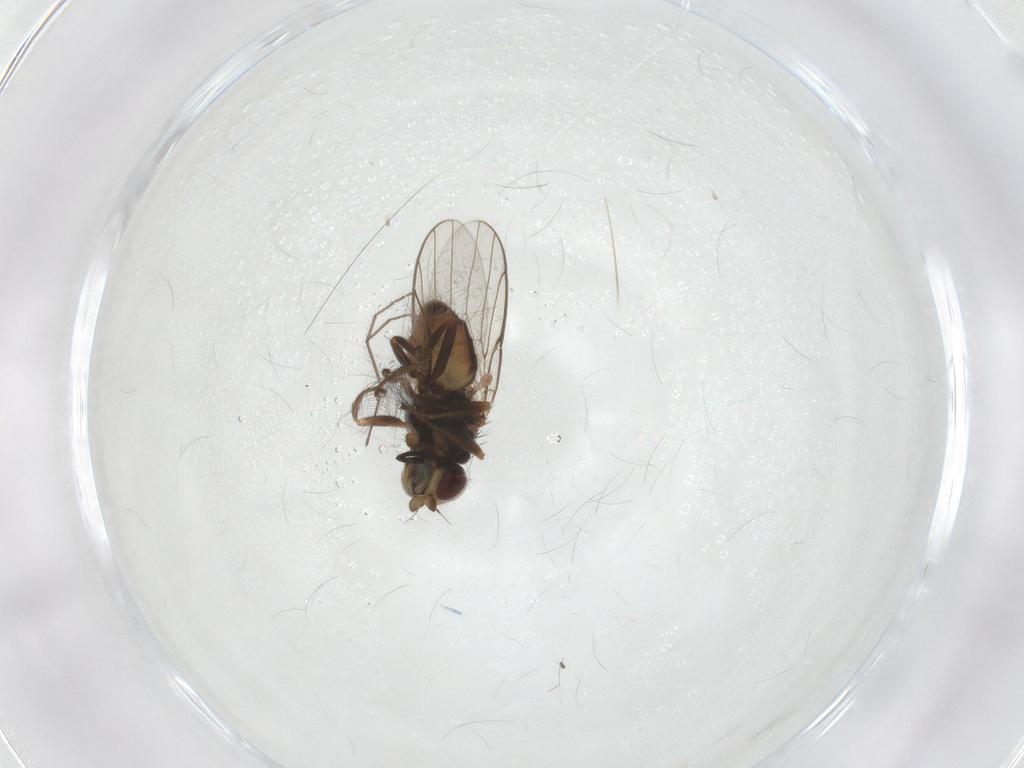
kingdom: Animalia
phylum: Arthropoda
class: Insecta
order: Diptera
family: Chloropidae
